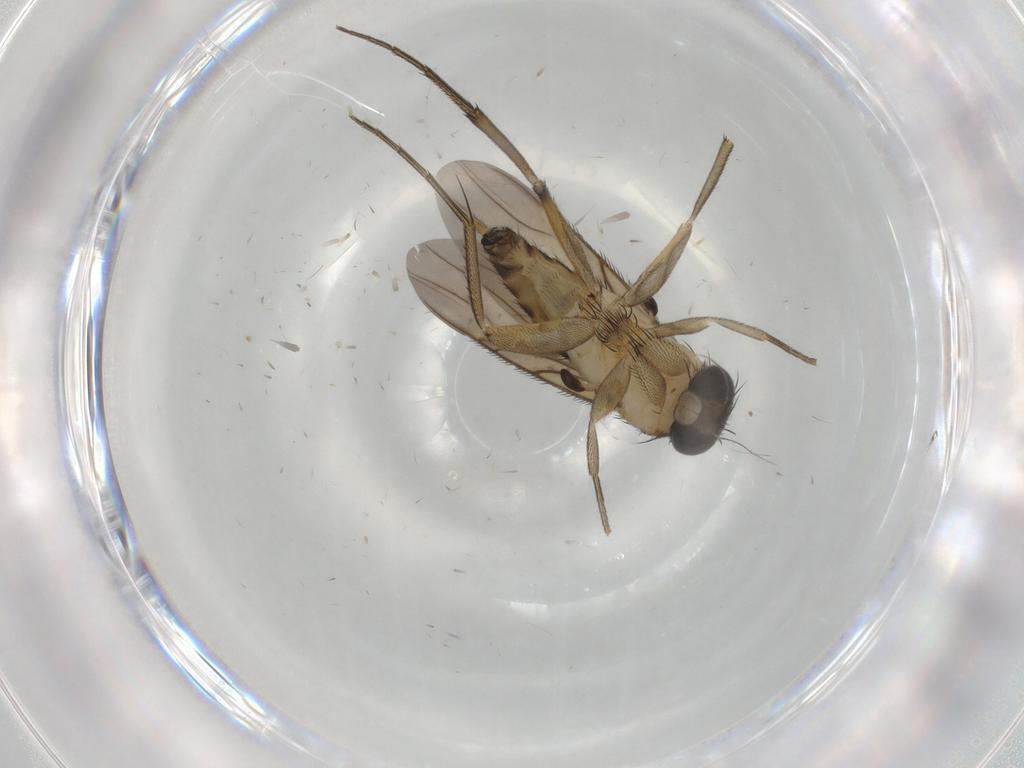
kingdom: Animalia
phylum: Arthropoda
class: Insecta
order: Diptera
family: Phoridae
